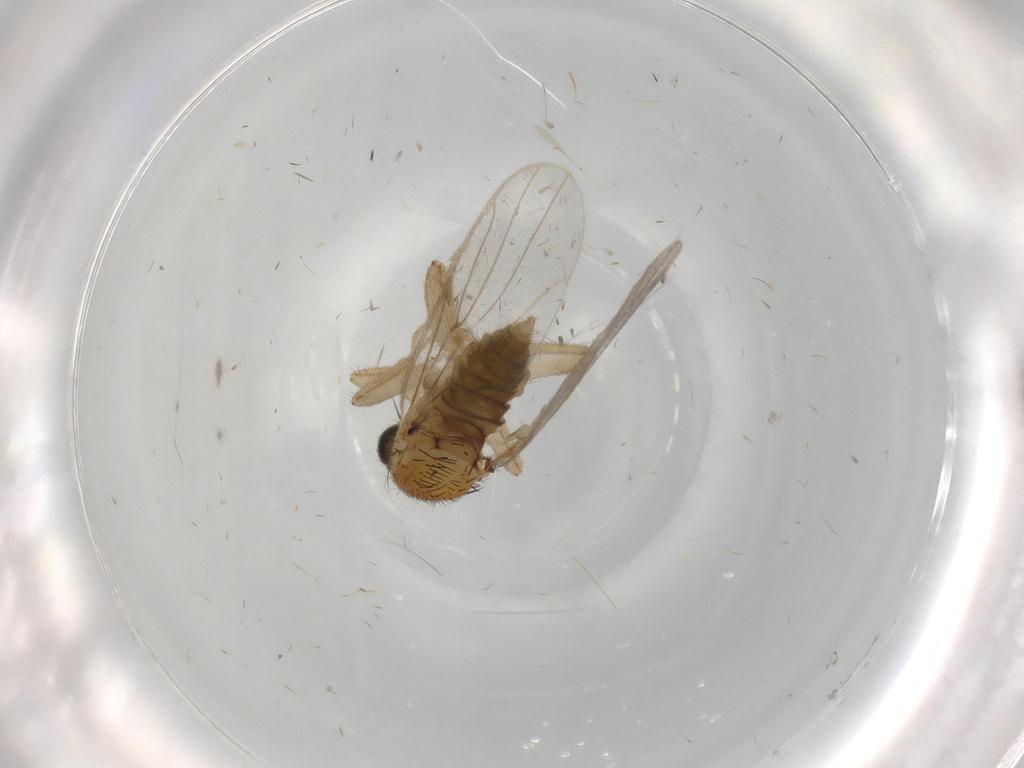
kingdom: Animalia
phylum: Arthropoda
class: Insecta
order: Diptera
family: Hybotidae
